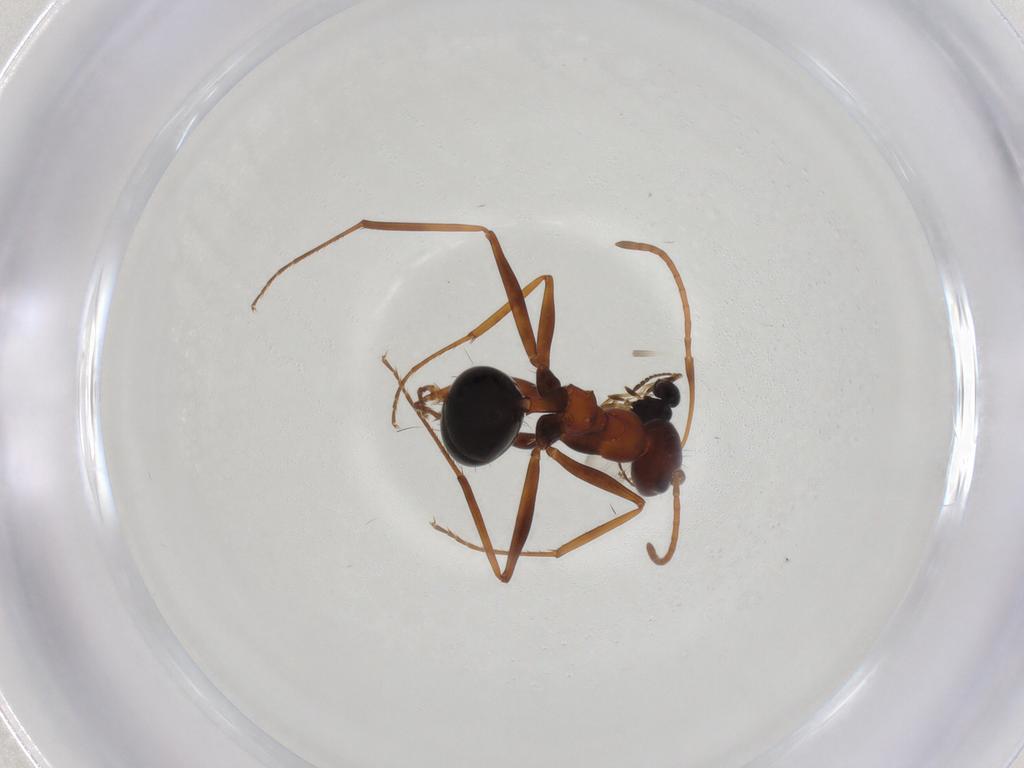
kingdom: Animalia
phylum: Arthropoda
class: Insecta
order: Hymenoptera
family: Formicidae
